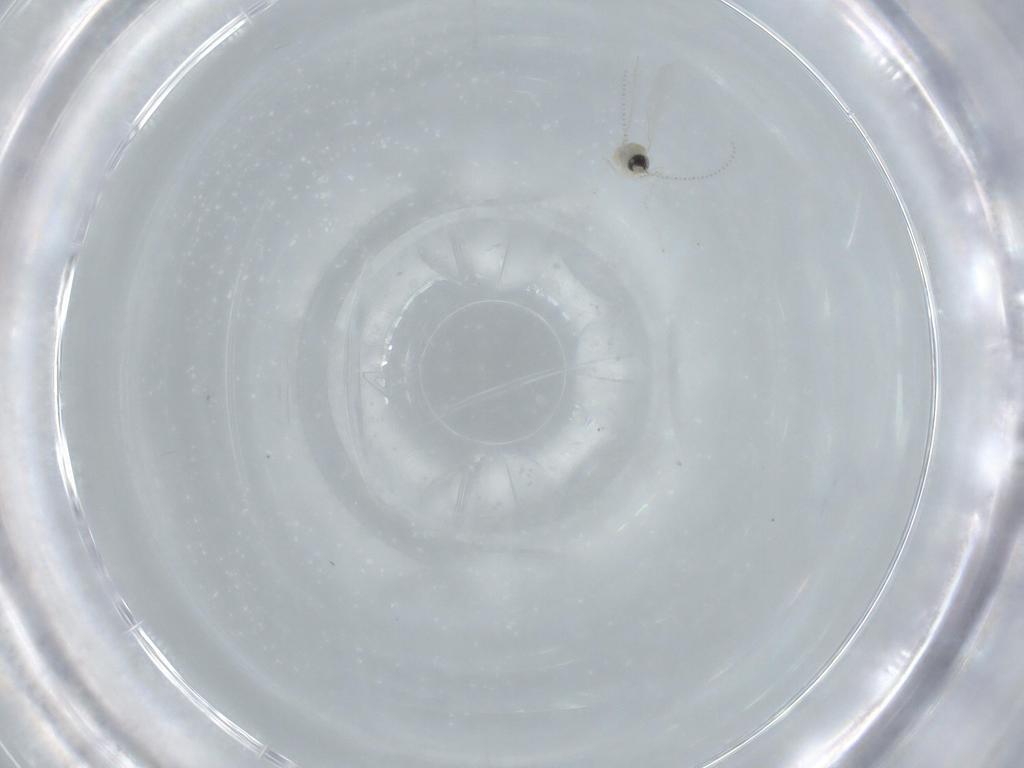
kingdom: Animalia
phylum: Arthropoda
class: Insecta
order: Diptera
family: Cecidomyiidae
